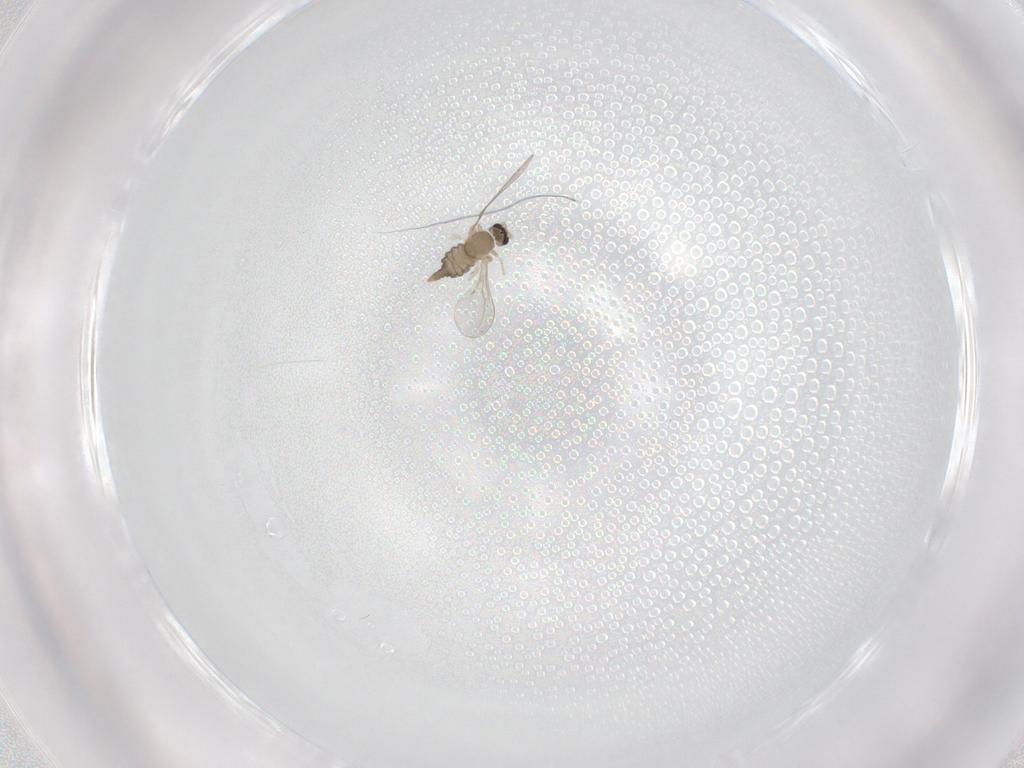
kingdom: Animalia
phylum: Arthropoda
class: Insecta
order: Diptera
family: Cecidomyiidae
